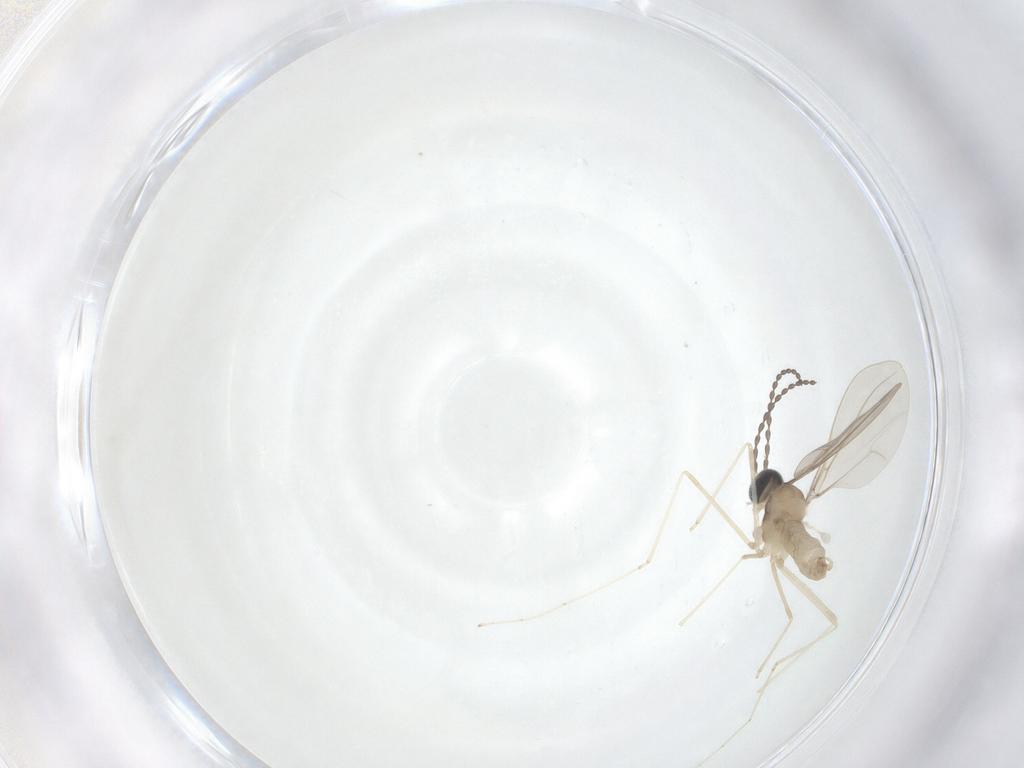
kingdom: Animalia
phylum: Arthropoda
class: Insecta
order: Diptera
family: Cecidomyiidae
